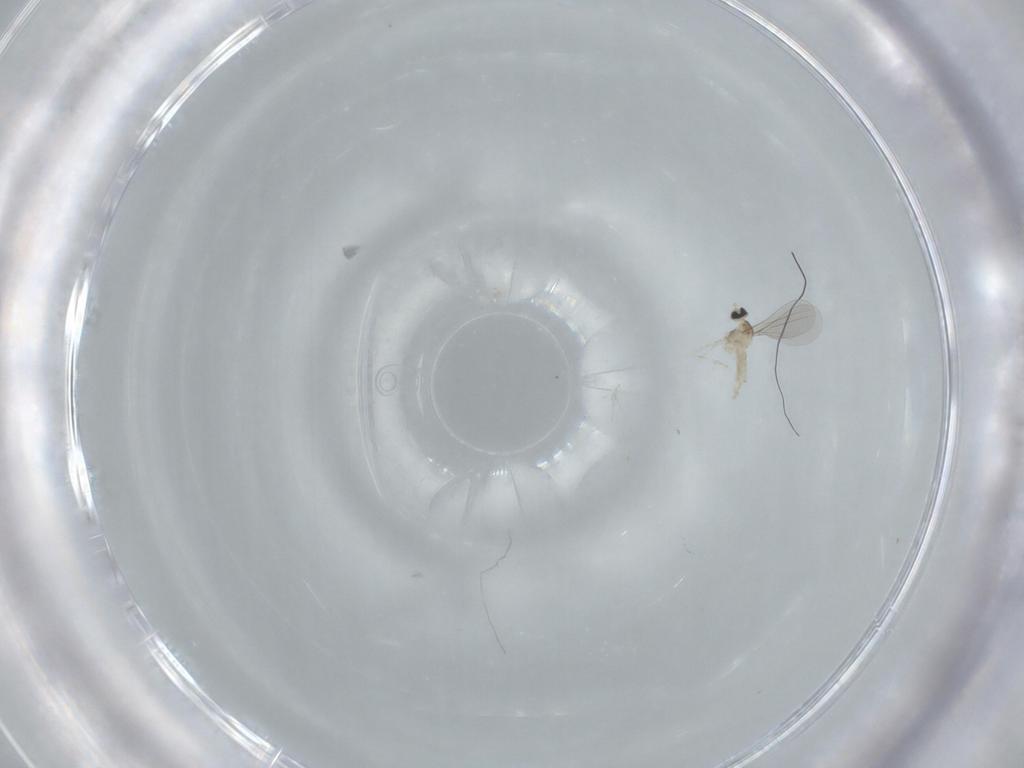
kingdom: Animalia
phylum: Arthropoda
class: Insecta
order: Diptera
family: Cecidomyiidae
